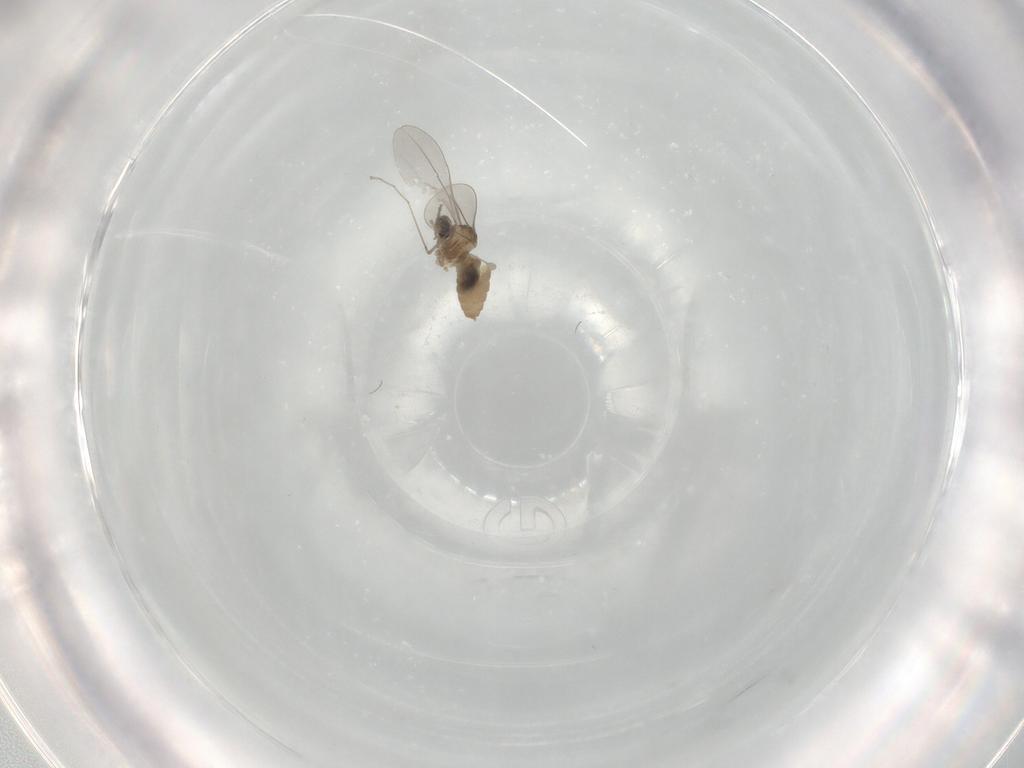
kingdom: Animalia
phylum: Arthropoda
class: Insecta
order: Diptera
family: Cecidomyiidae
